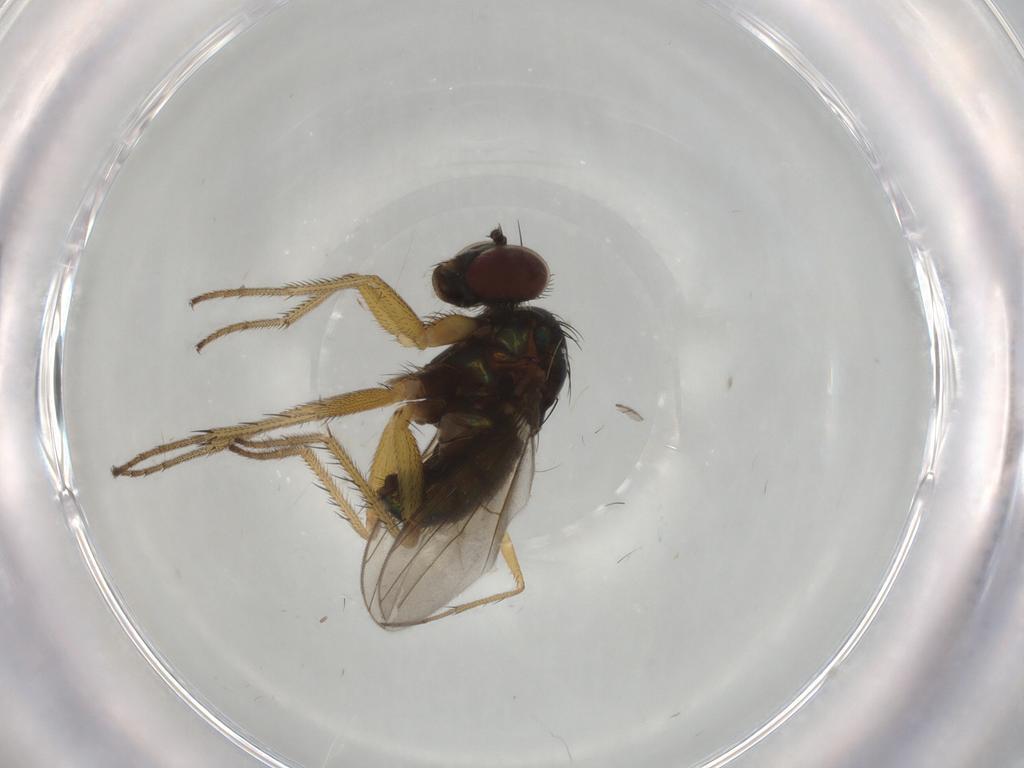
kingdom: Animalia
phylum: Arthropoda
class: Insecta
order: Diptera
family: Dolichopodidae
